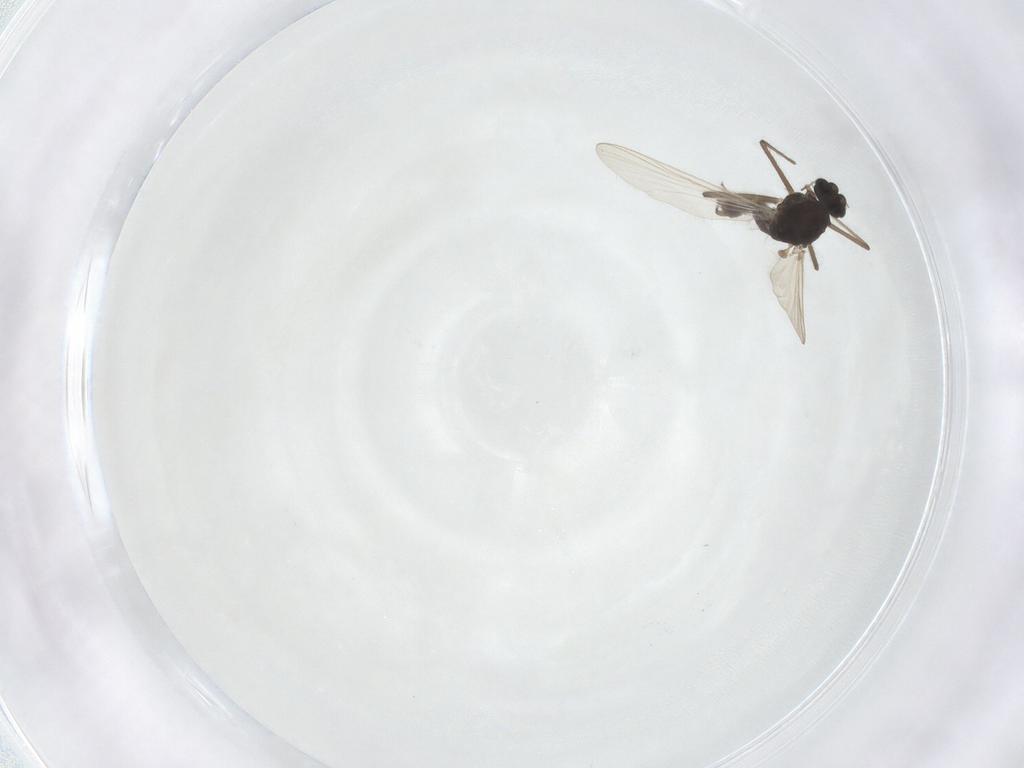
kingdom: Animalia
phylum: Arthropoda
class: Insecta
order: Diptera
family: Chironomidae
